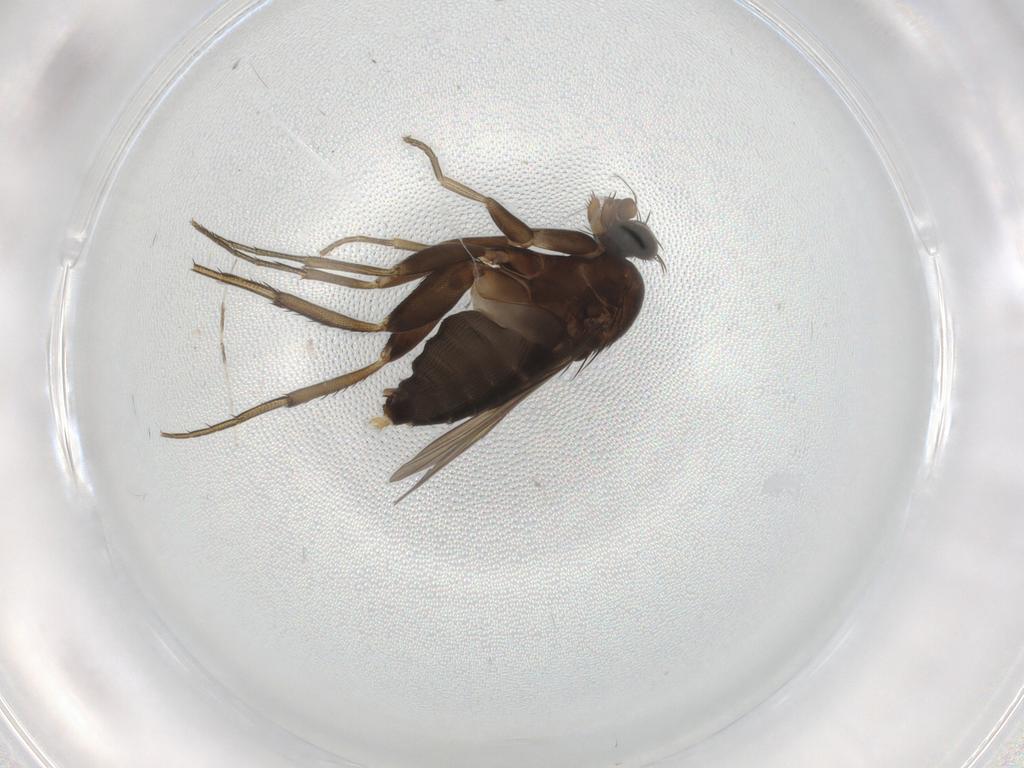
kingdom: Animalia
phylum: Arthropoda
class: Insecta
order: Diptera
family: Phoridae
